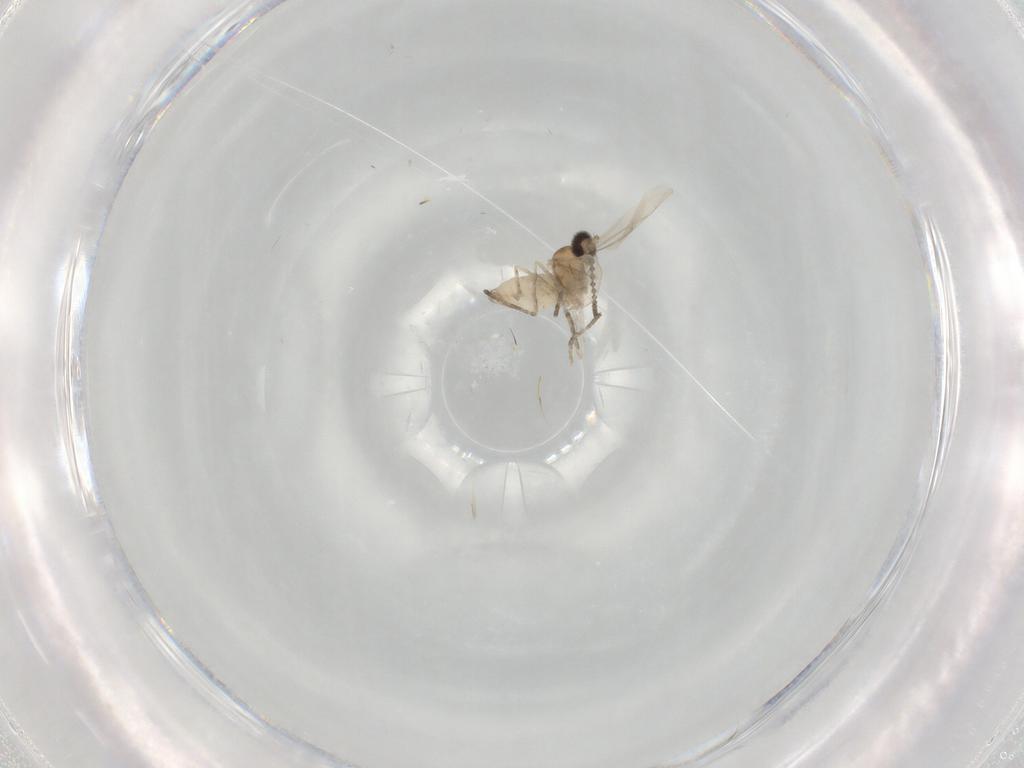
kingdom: Animalia
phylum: Arthropoda
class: Insecta
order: Diptera
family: Cecidomyiidae
